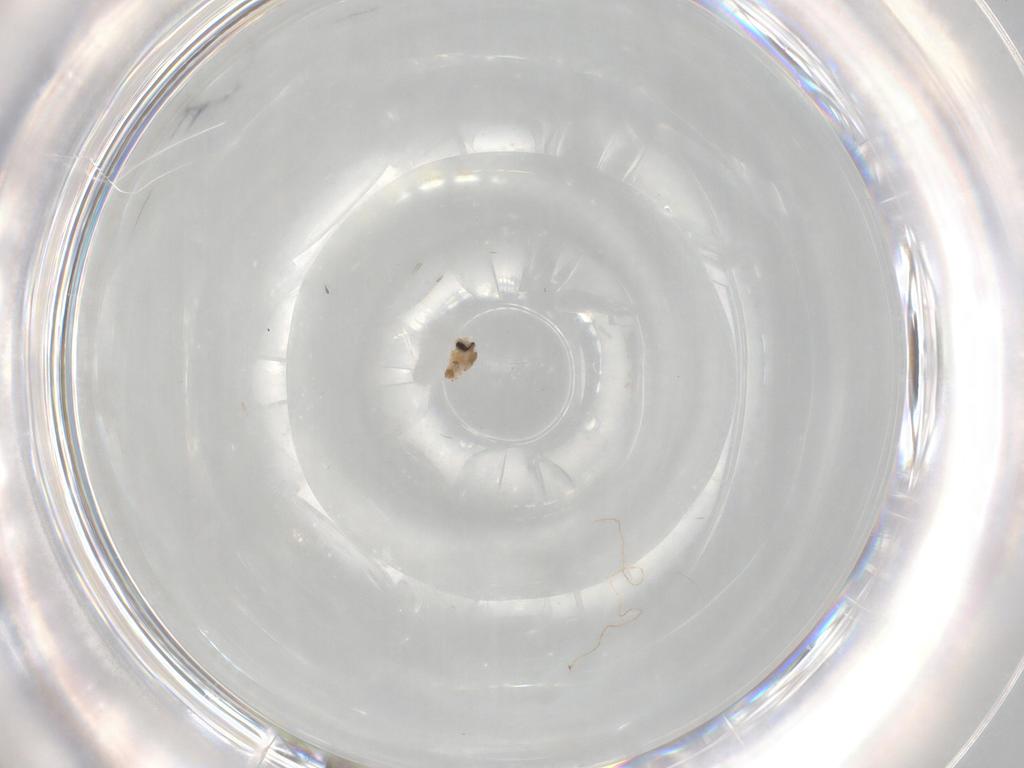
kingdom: Animalia
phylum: Arthropoda
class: Insecta
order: Diptera
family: Cecidomyiidae
